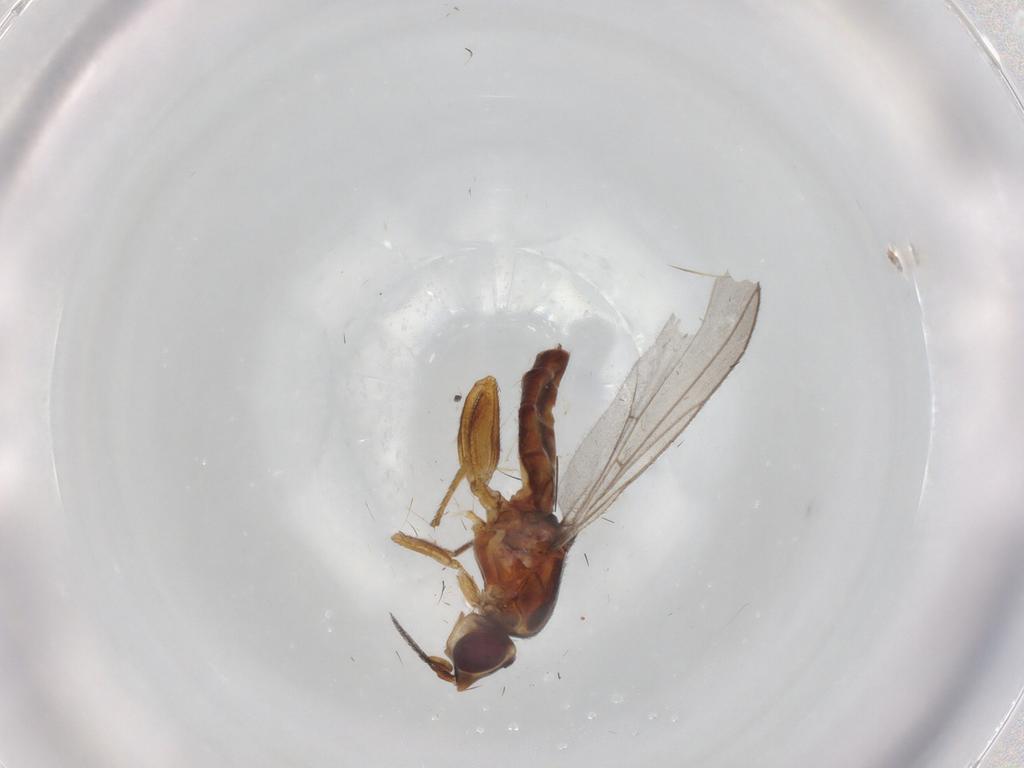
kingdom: Animalia
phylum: Arthropoda
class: Insecta
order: Diptera
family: Chloropidae
